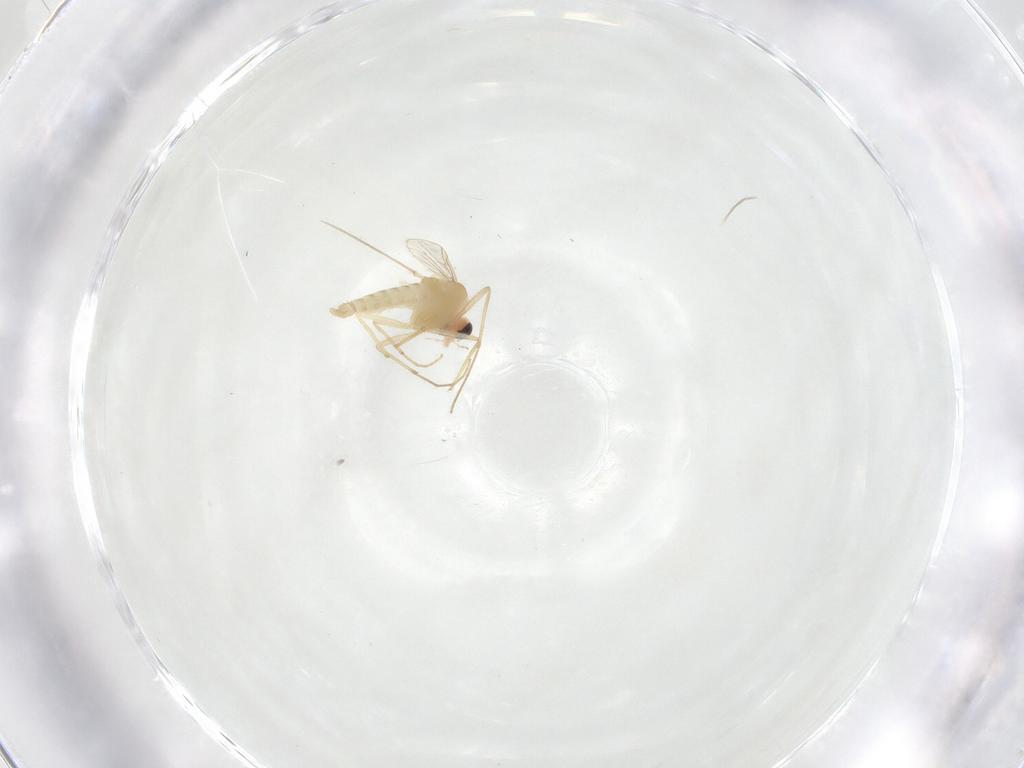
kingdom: Animalia
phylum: Arthropoda
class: Insecta
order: Diptera
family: Chironomidae
